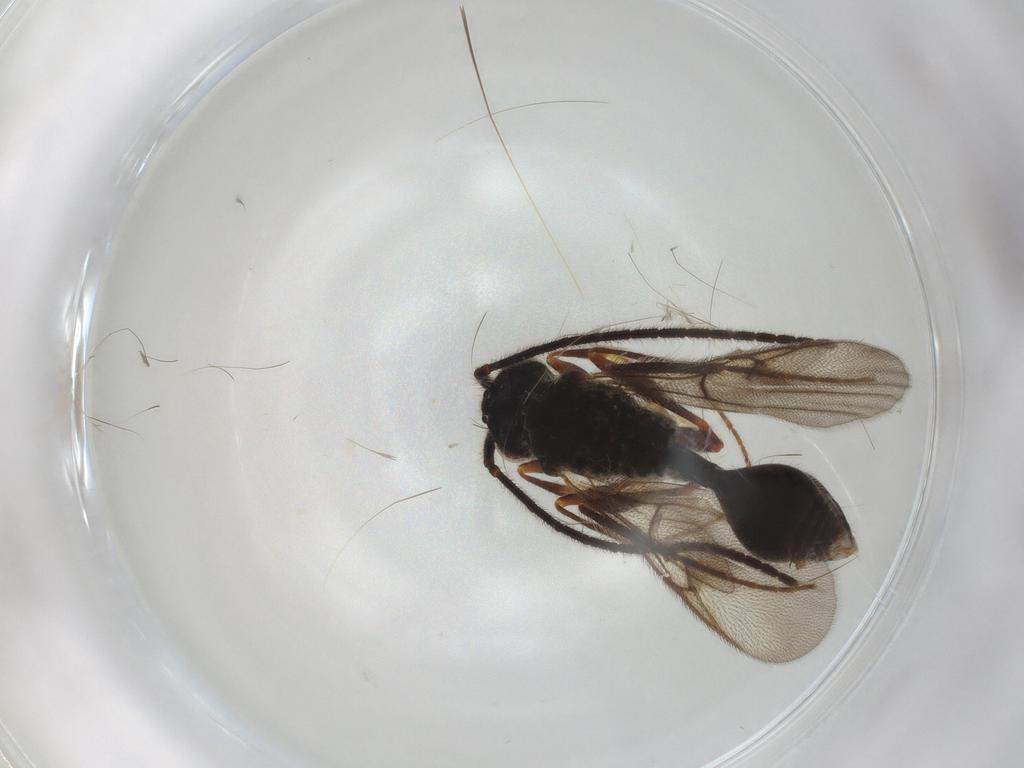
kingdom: Animalia
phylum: Arthropoda
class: Insecta
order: Hymenoptera
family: Diapriidae
